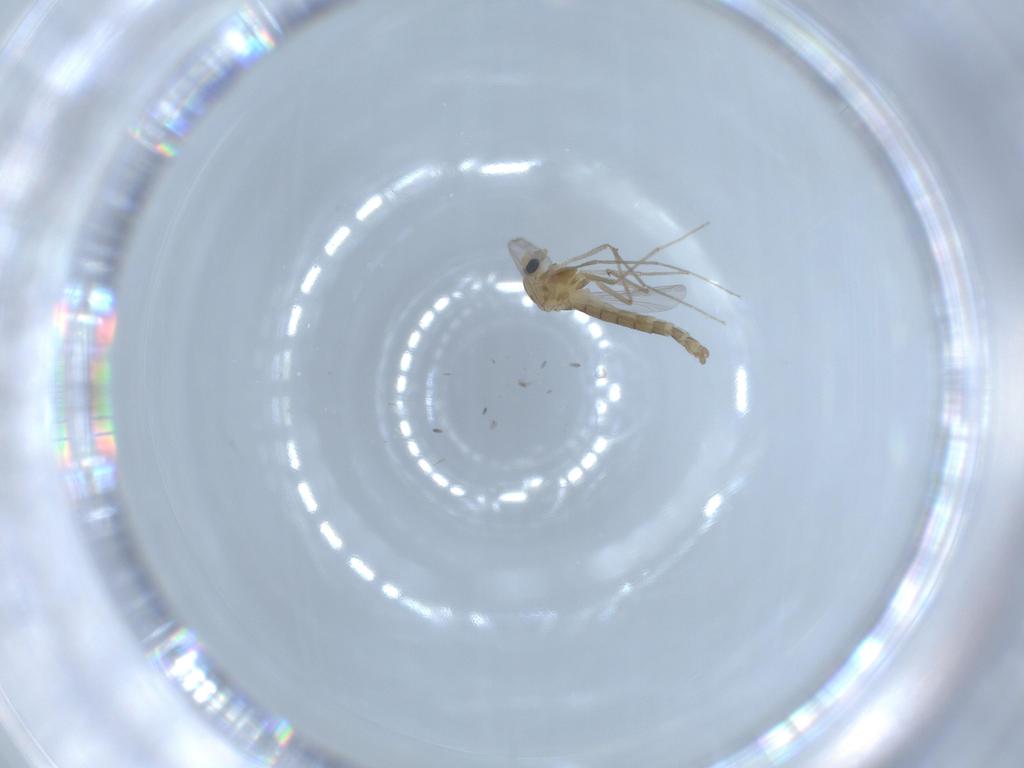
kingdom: Animalia
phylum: Arthropoda
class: Insecta
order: Diptera
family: Chironomidae
